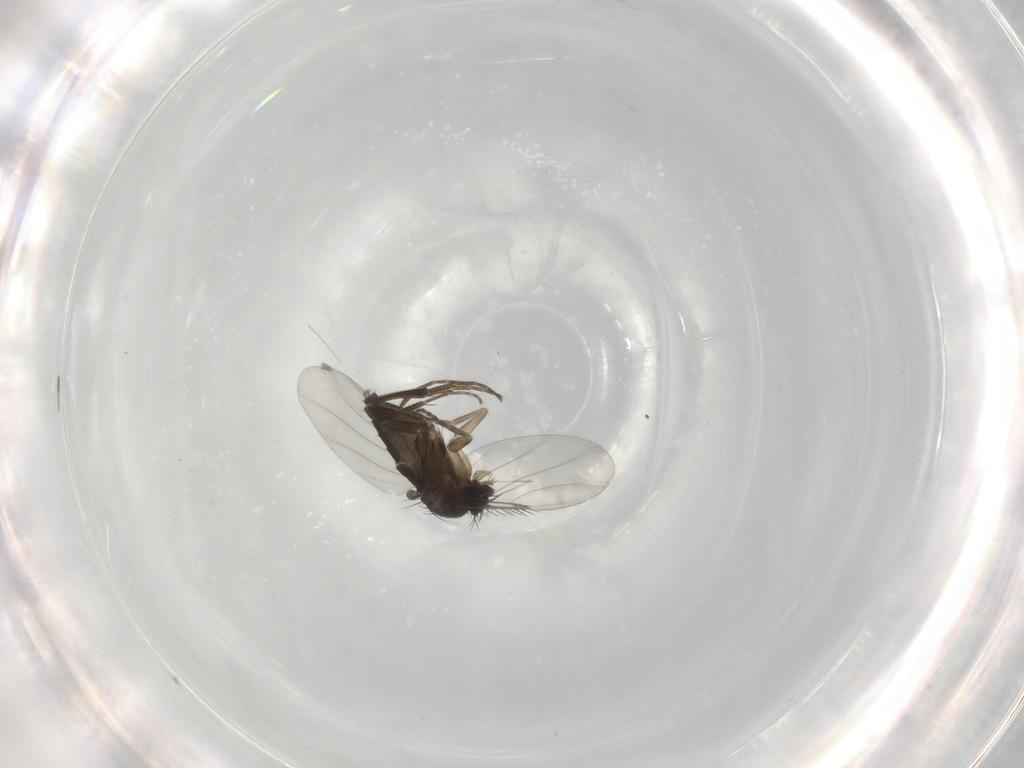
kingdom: Animalia
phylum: Arthropoda
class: Insecta
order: Diptera
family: Phoridae
